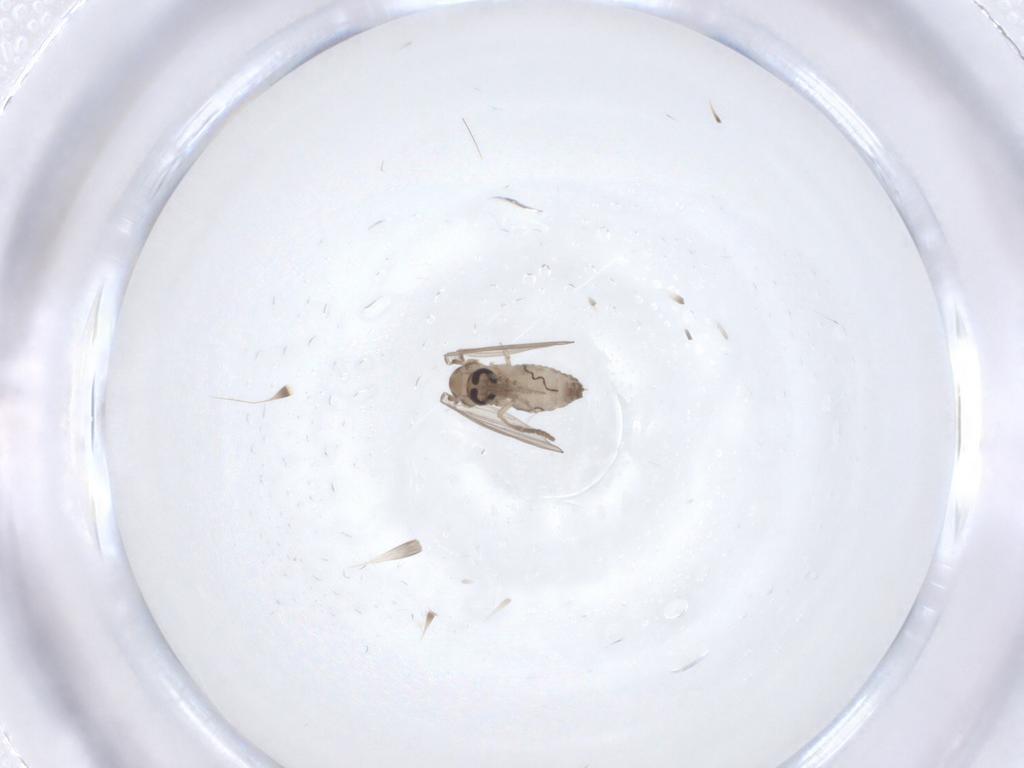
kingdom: Animalia
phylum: Arthropoda
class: Insecta
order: Diptera
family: Psychodidae
